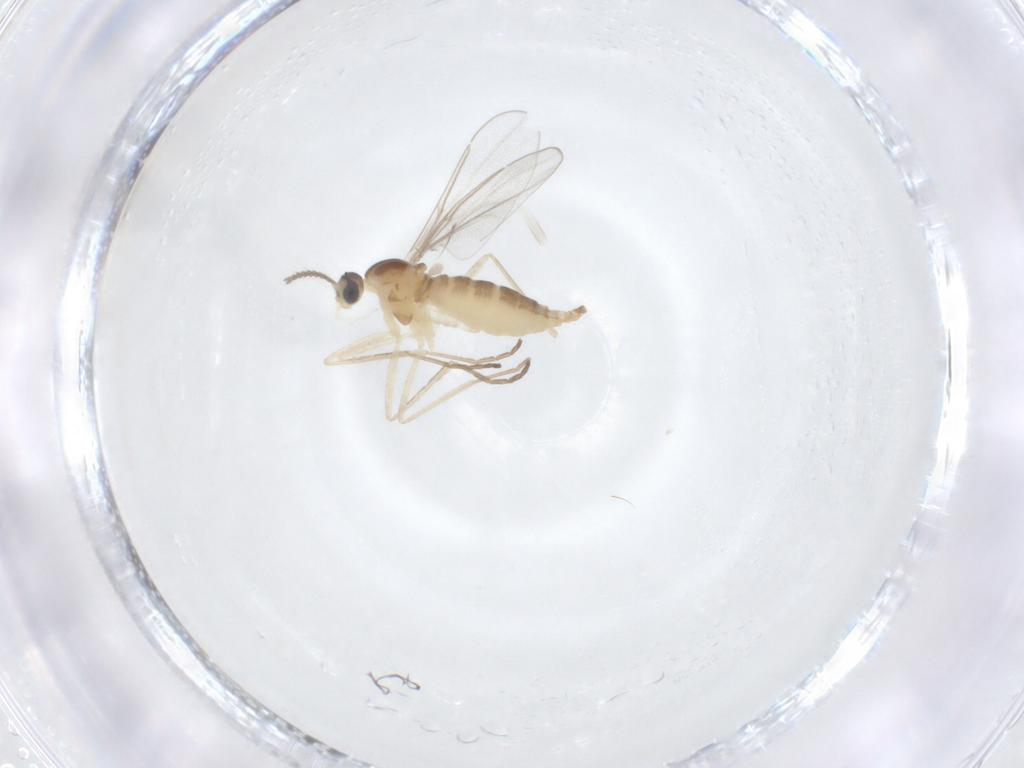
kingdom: Animalia
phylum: Arthropoda
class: Insecta
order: Diptera
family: Cecidomyiidae
